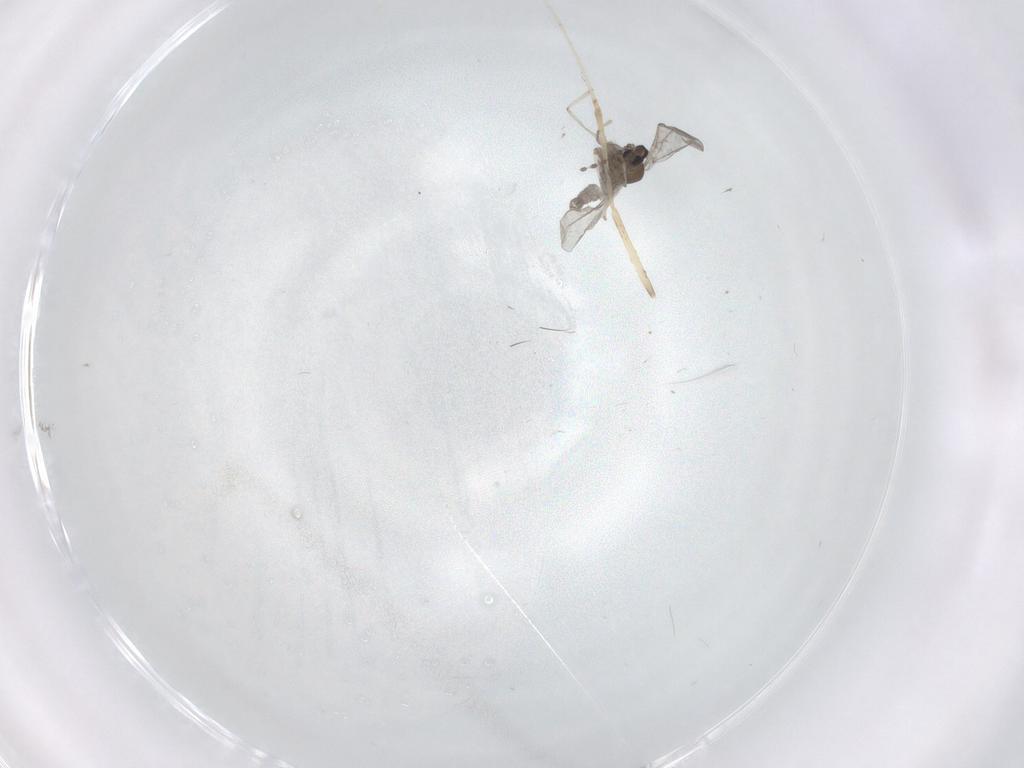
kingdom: Animalia
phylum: Arthropoda
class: Insecta
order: Diptera
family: Cecidomyiidae
